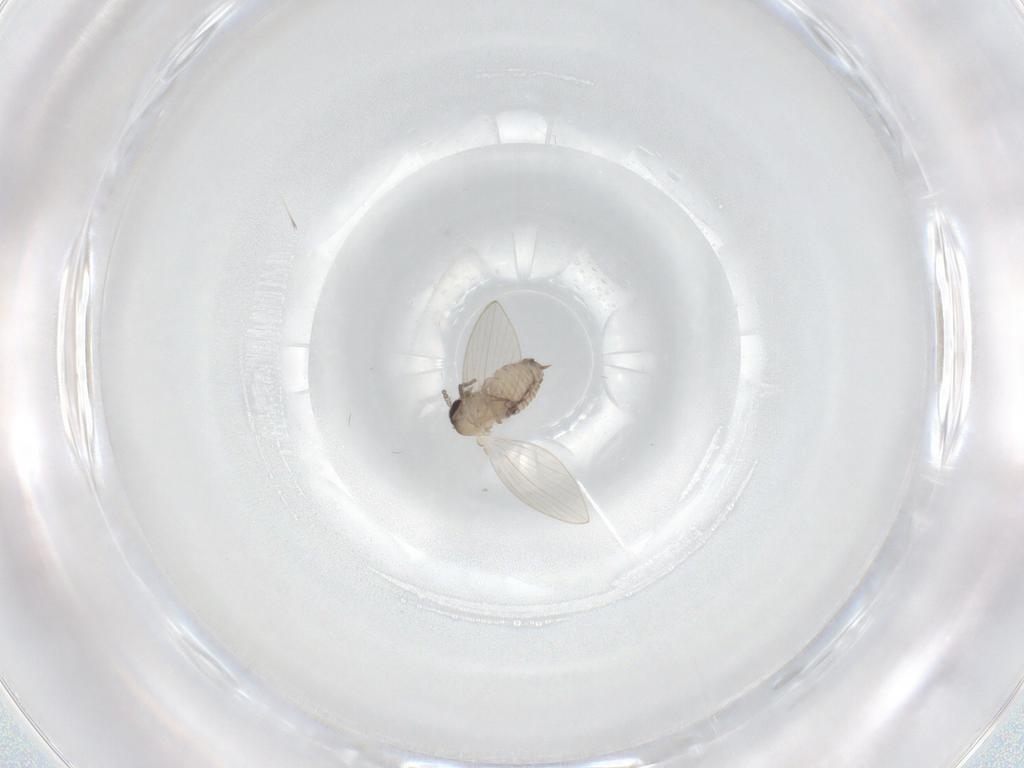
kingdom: Animalia
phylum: Arthropoda
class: Insecta
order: Diptera
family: Psychodidae
